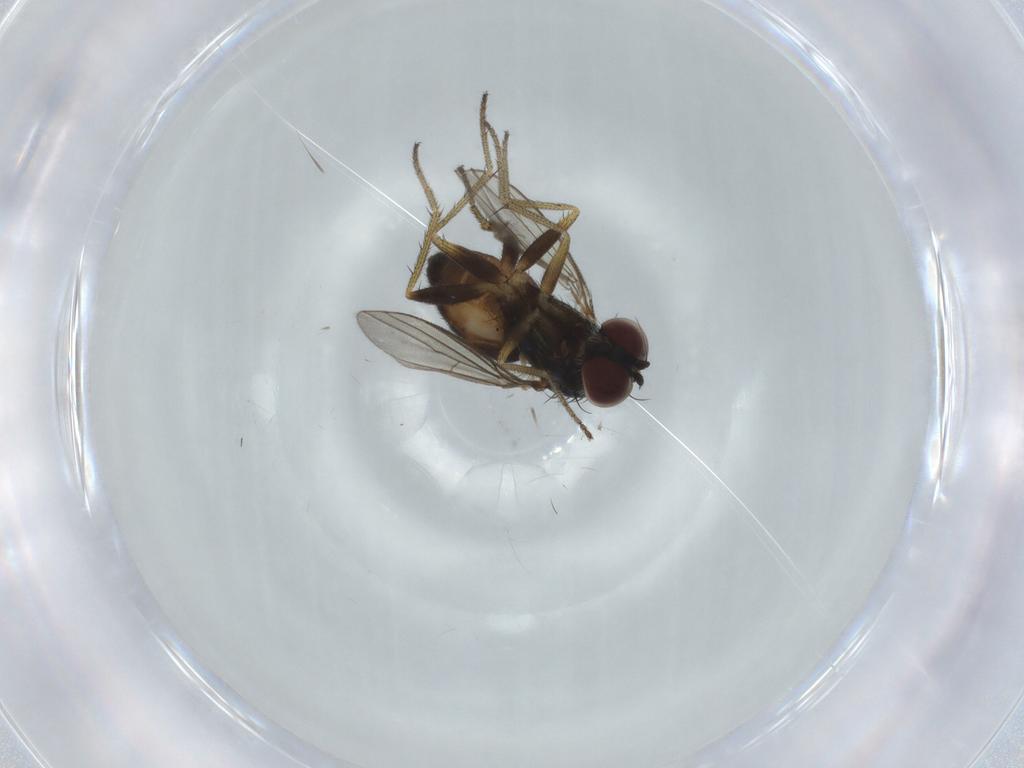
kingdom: Animalia
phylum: Arthropoda
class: Insecta
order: Diptera
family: Dolichopodidae
